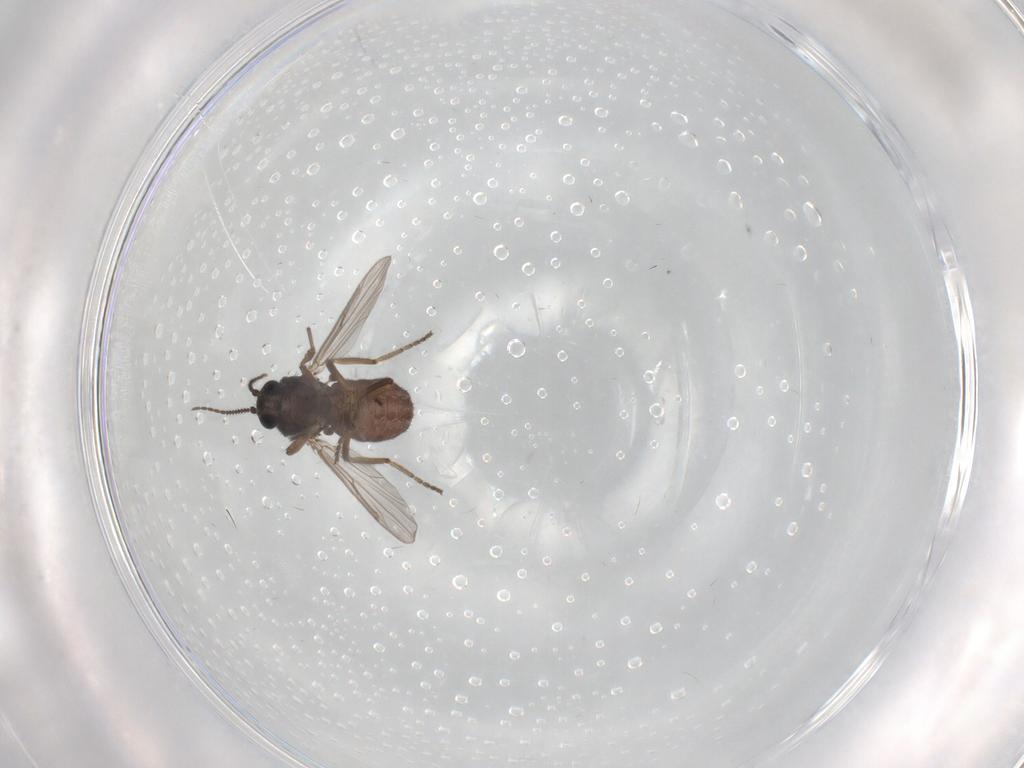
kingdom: Animalia
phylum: Arthropoda
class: Insecta
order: Diptera
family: Ceratopogonidae
